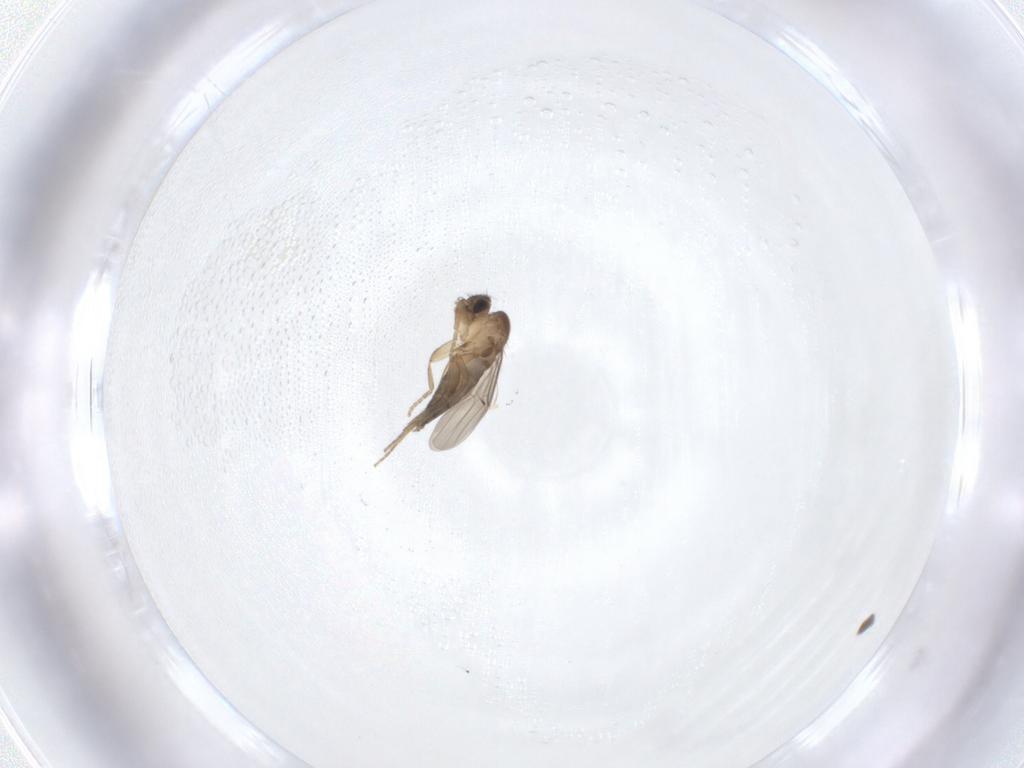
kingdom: Animalia
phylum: Arthropoda
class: Insecta
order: Diptera
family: Phoridae
